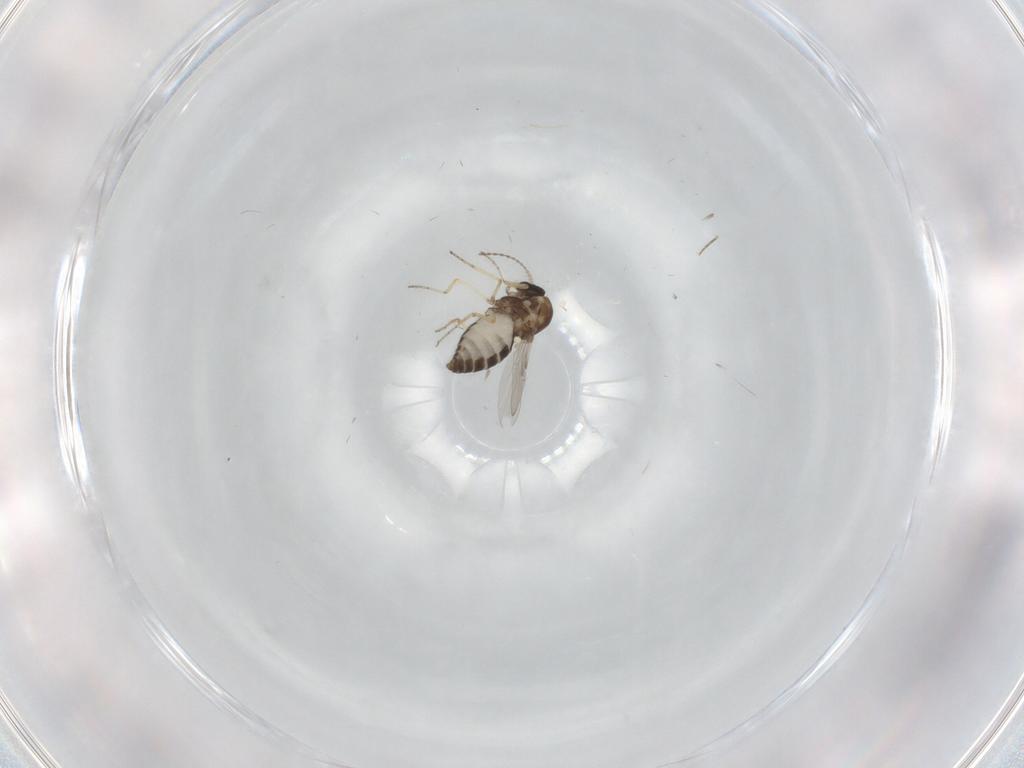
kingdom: Animalia
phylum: Arthropoda
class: Insecta
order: Diptera
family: Ceratopogonidae
